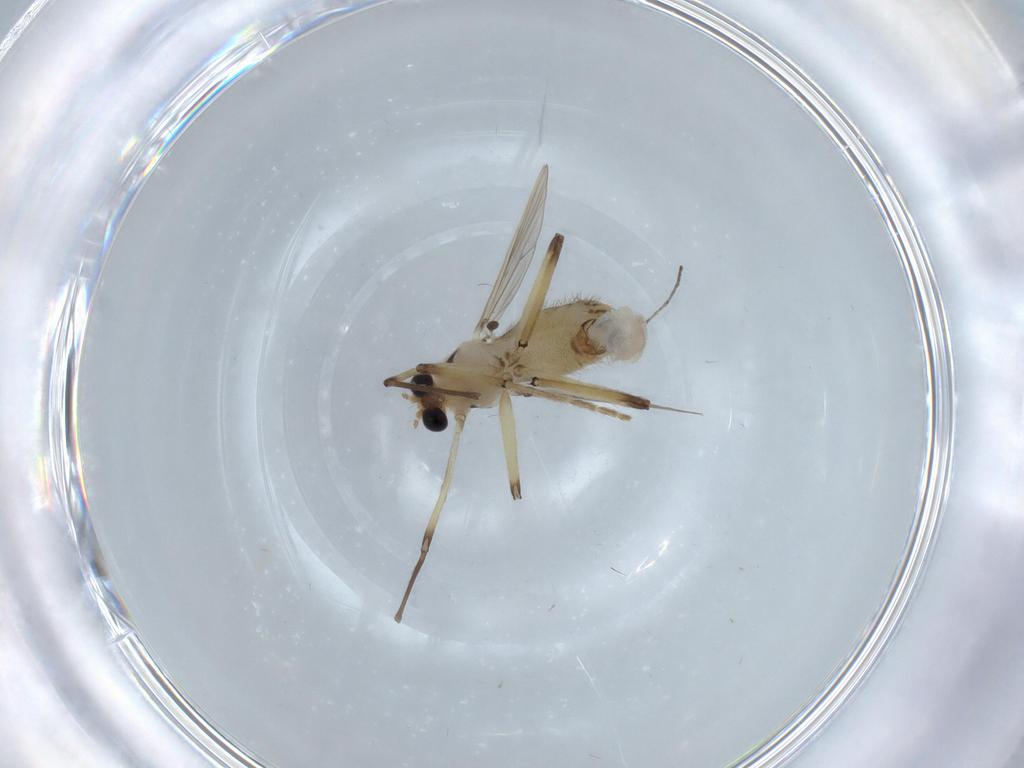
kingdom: Animalia
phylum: Arthropoda
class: Insecta
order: Diptera
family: Chironomidae
